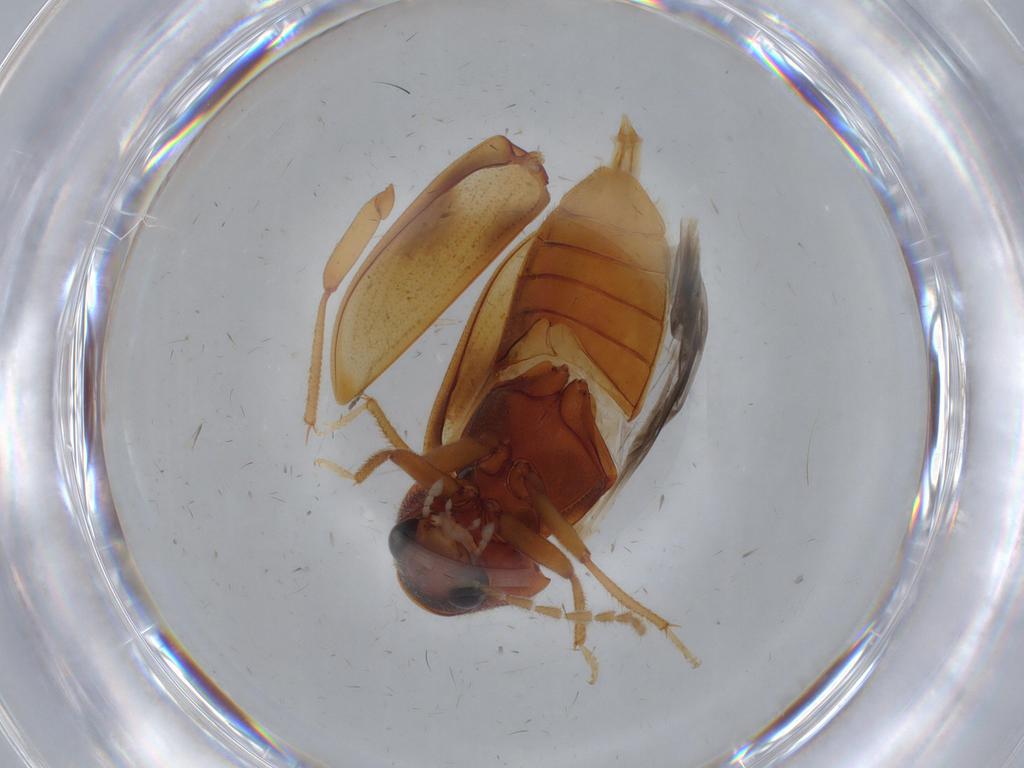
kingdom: Animalia
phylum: Arthropoda
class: Insecta
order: Coleoptera
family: Ptilodactylidae
